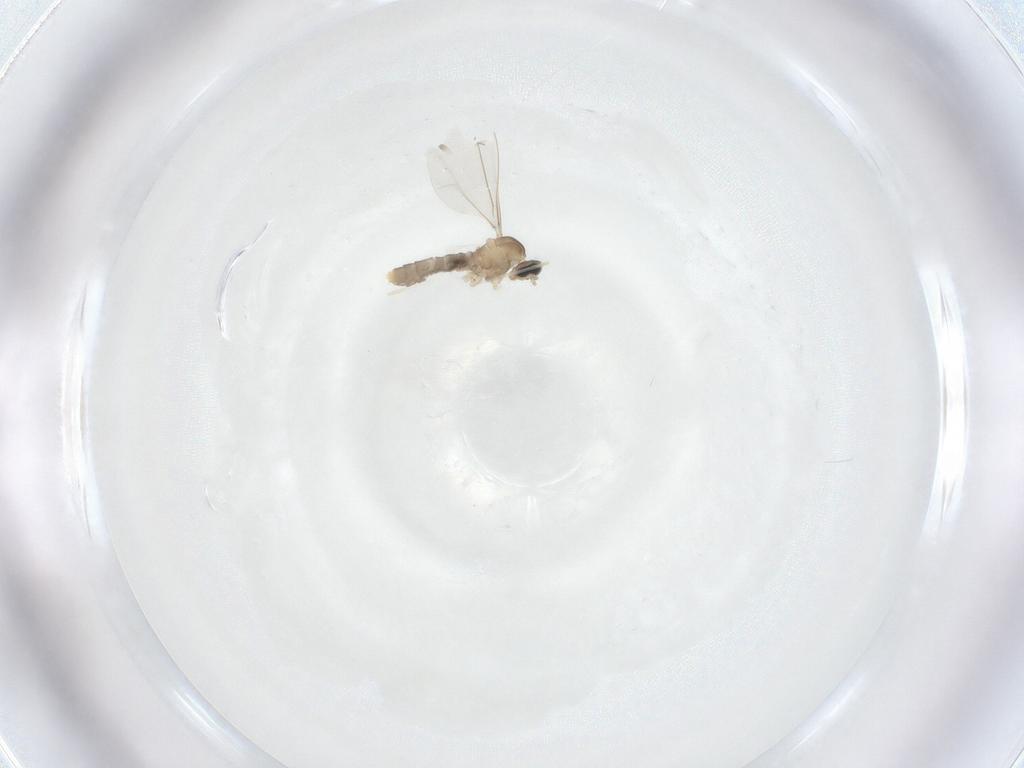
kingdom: Animalia
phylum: Arthropoda
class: Insecta
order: Diptera
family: Cecidomyiidae
